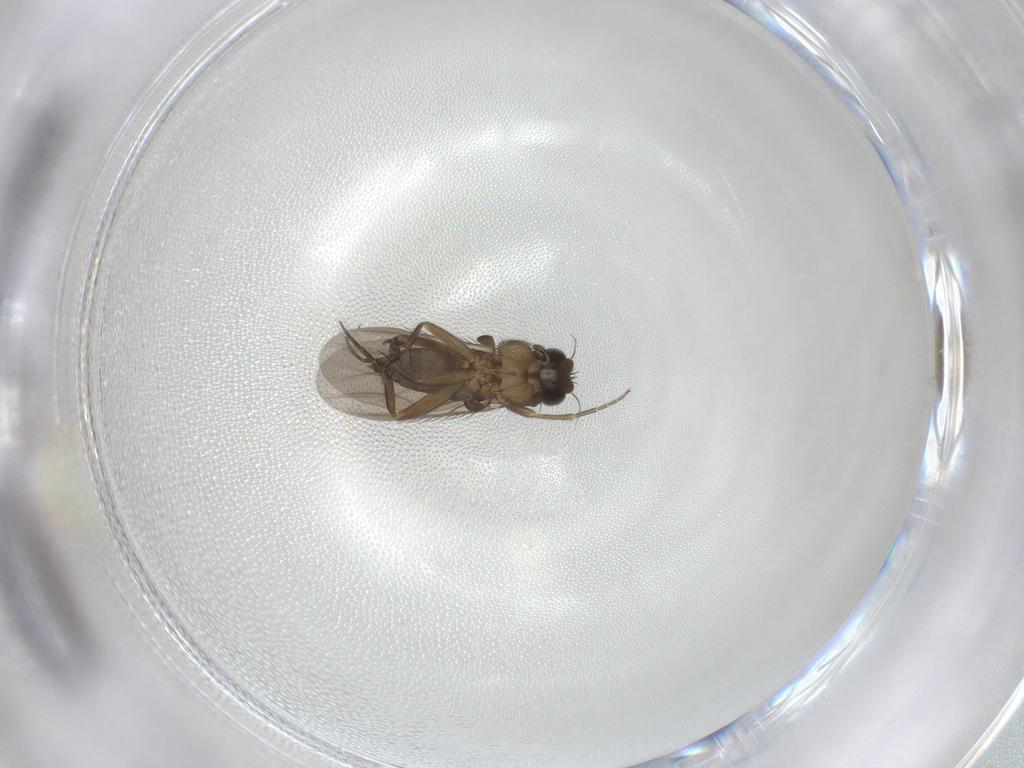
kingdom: Animalia
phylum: Arthropoda
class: Insecta
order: Diptera
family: Phoridae
